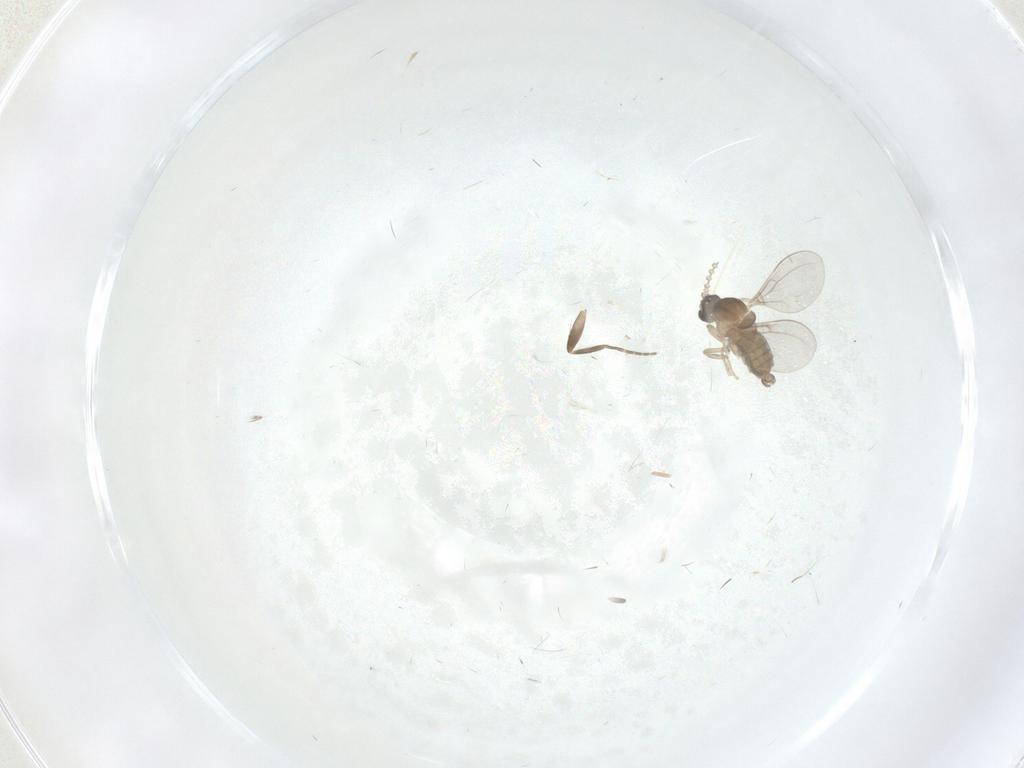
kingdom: Animalia
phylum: Arthropoda
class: Insecta
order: Diptera
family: Cecidomyiidae
